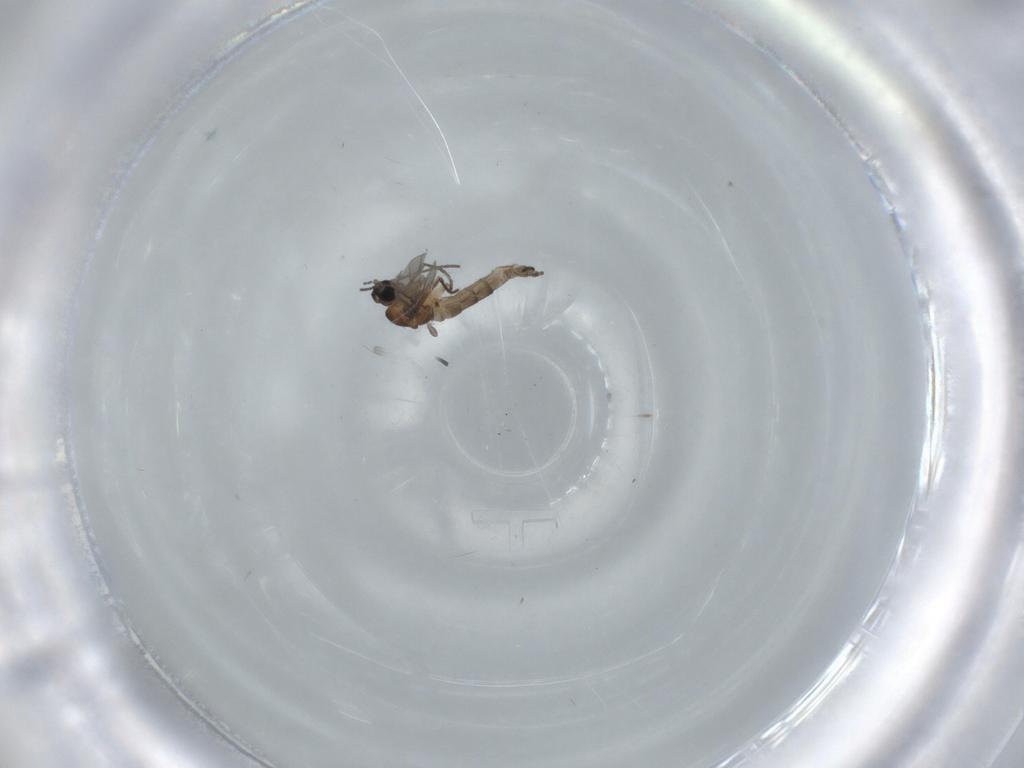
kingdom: Animalia
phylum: Arthropoda
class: Insecta
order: Diptera
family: Sciaridae
